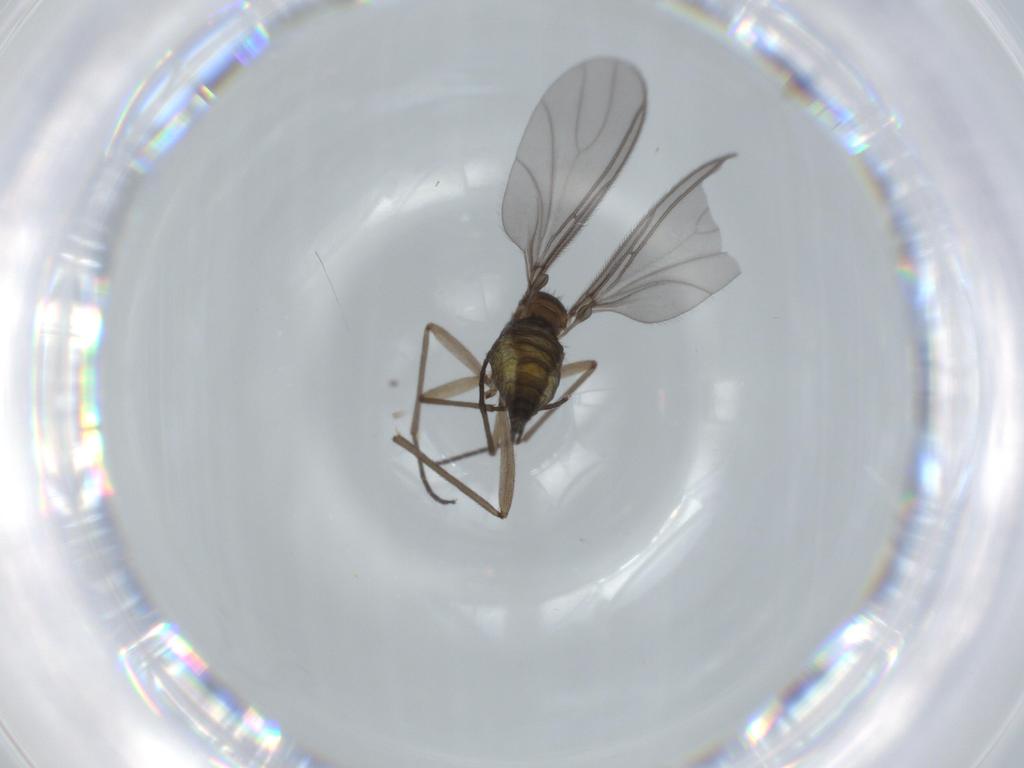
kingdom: Animalia
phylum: Arthropoda
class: Insecta
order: Diptera
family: Sciaridae
